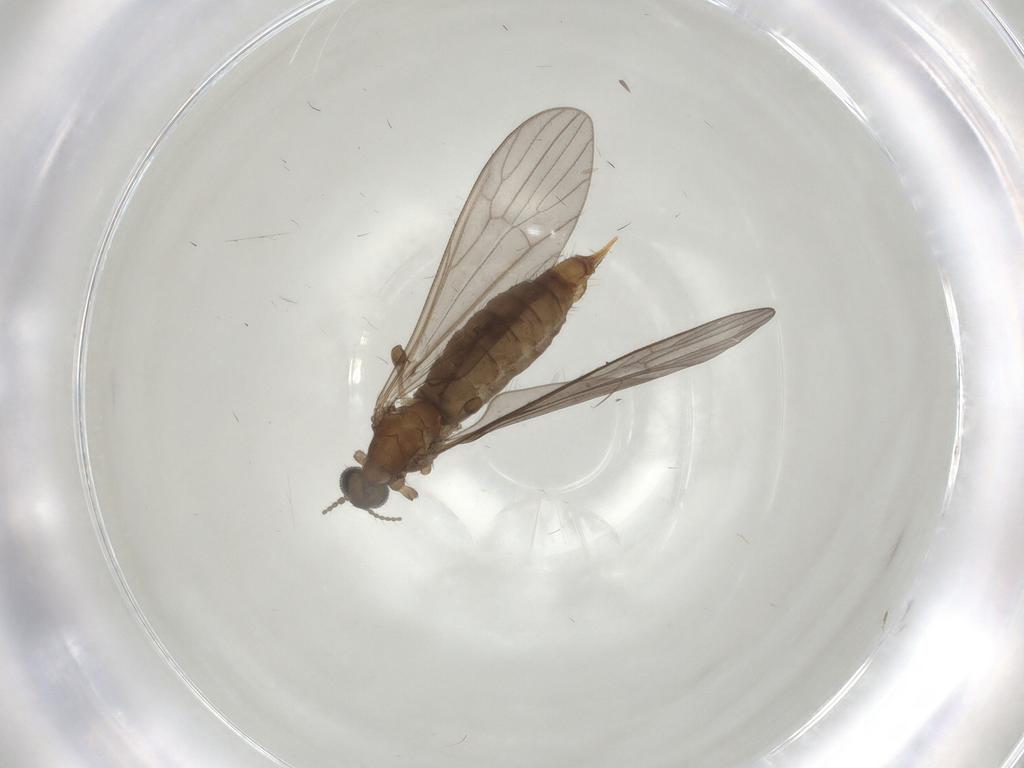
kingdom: Animalia
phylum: Arthropoda
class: Insecta
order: Diptera
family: Limoniidae
